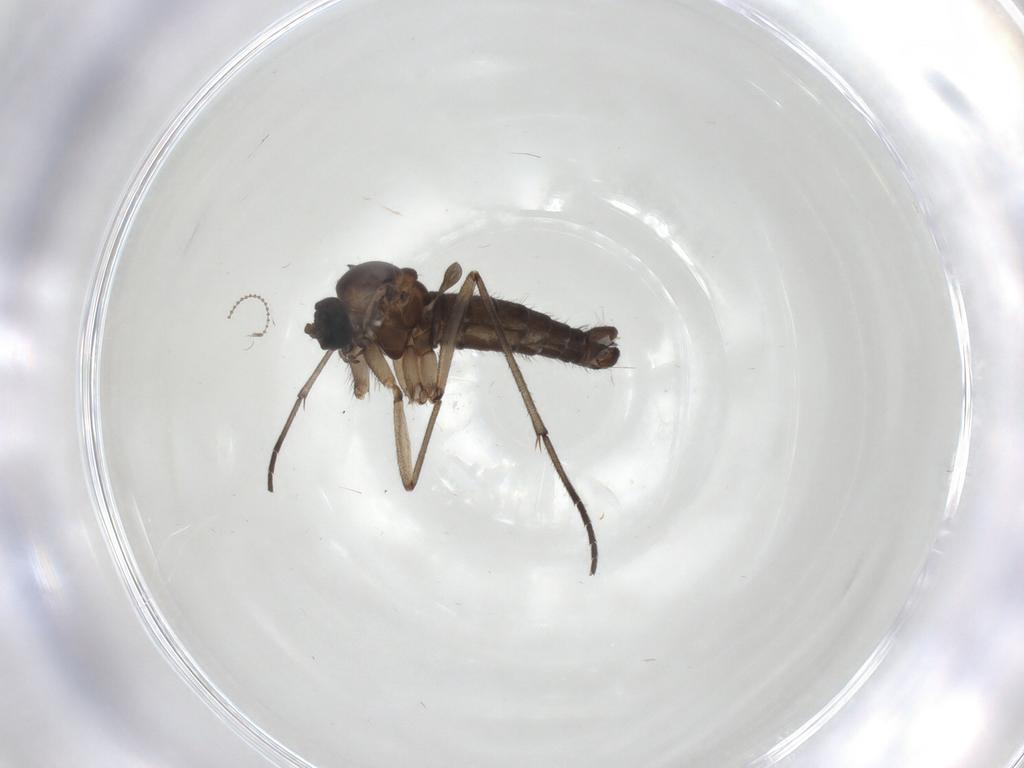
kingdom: Animalia
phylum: Arthropoda
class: Insecta
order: Diptera
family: Sciaridae
